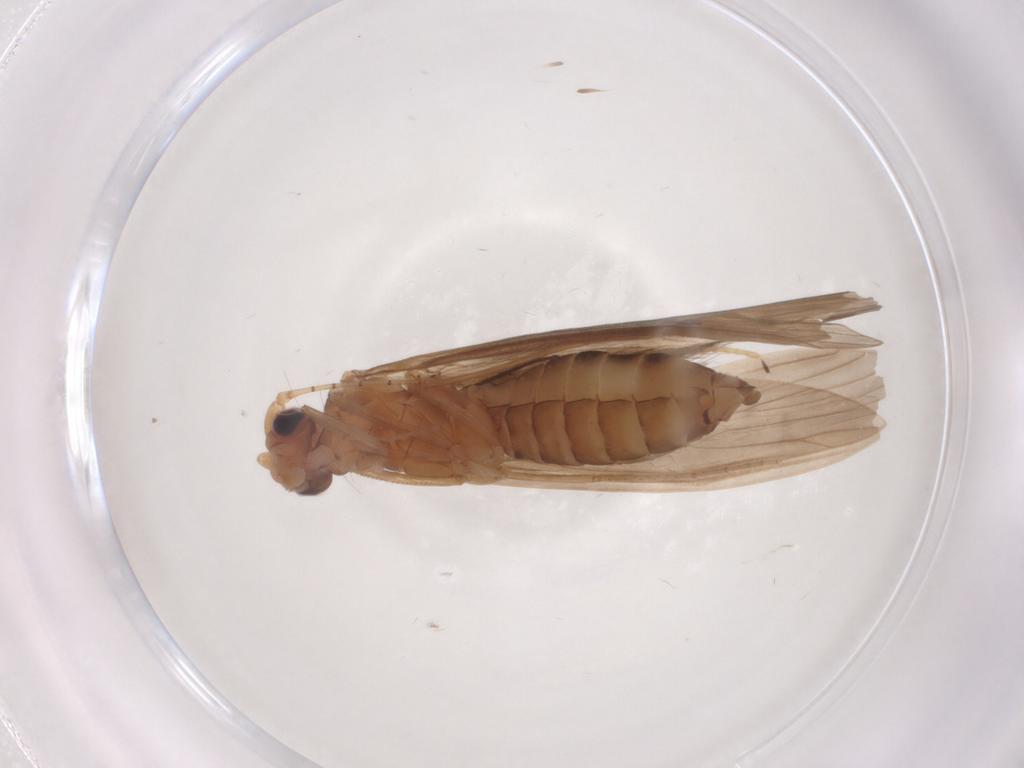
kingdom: Animalia
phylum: Arthropoda
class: Insecta
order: Trichoptera
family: Leptoceridae
